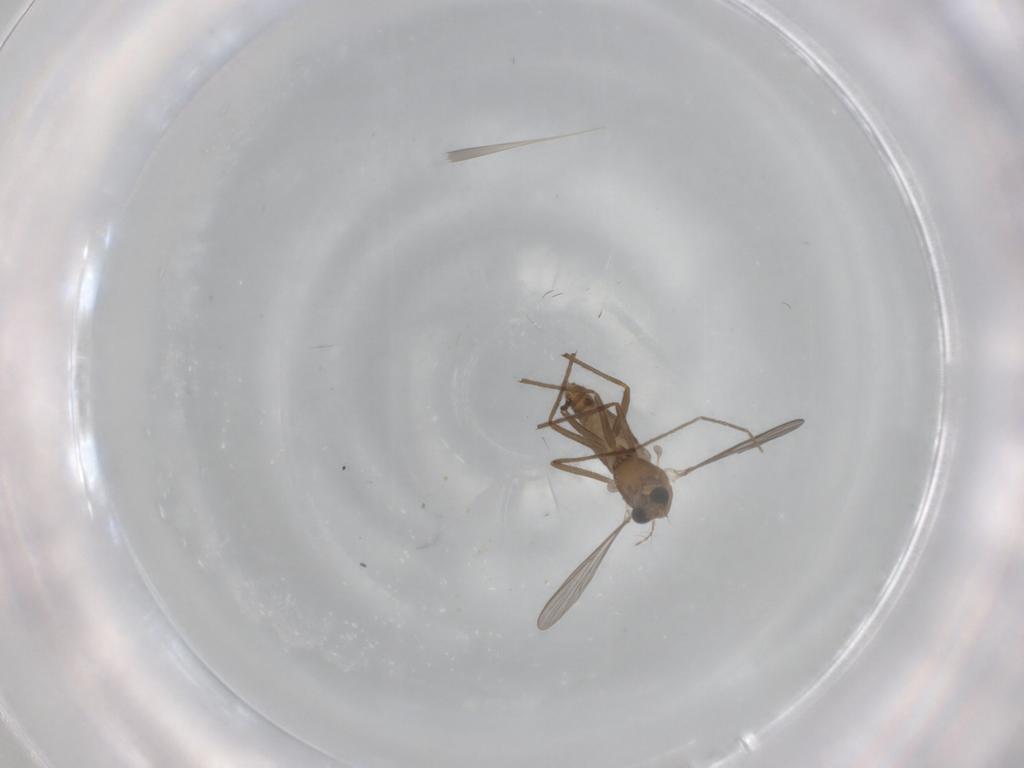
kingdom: Animalia
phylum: Arthropoda
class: Insecta
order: Diptera
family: Chironomidae
